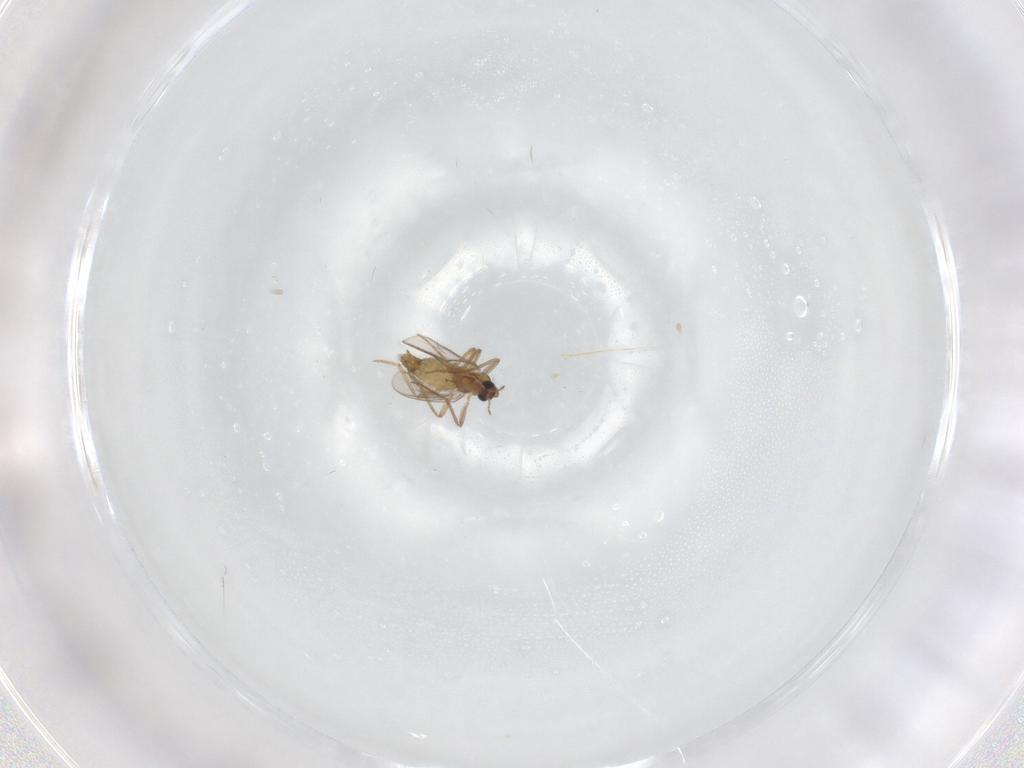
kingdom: Animalia
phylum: Arthropoda
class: Insecta
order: Diptera
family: Chironomidae
